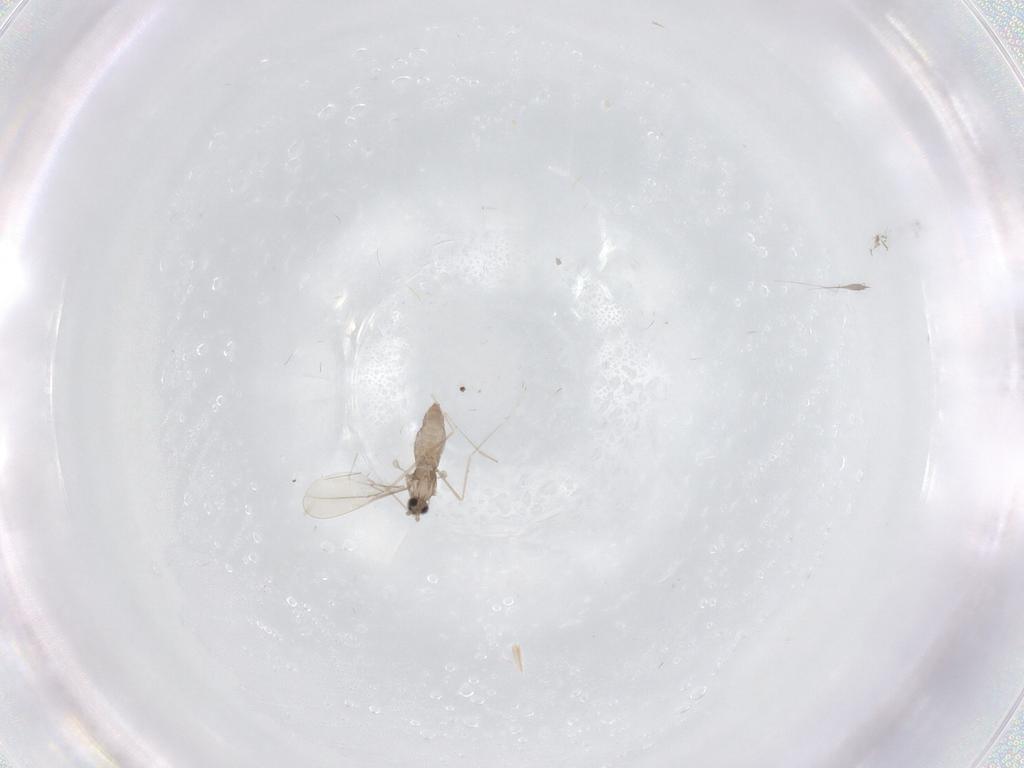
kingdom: Animalia
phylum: Arthropoda
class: Insecta
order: Diptera
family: Cecidomyiidae
